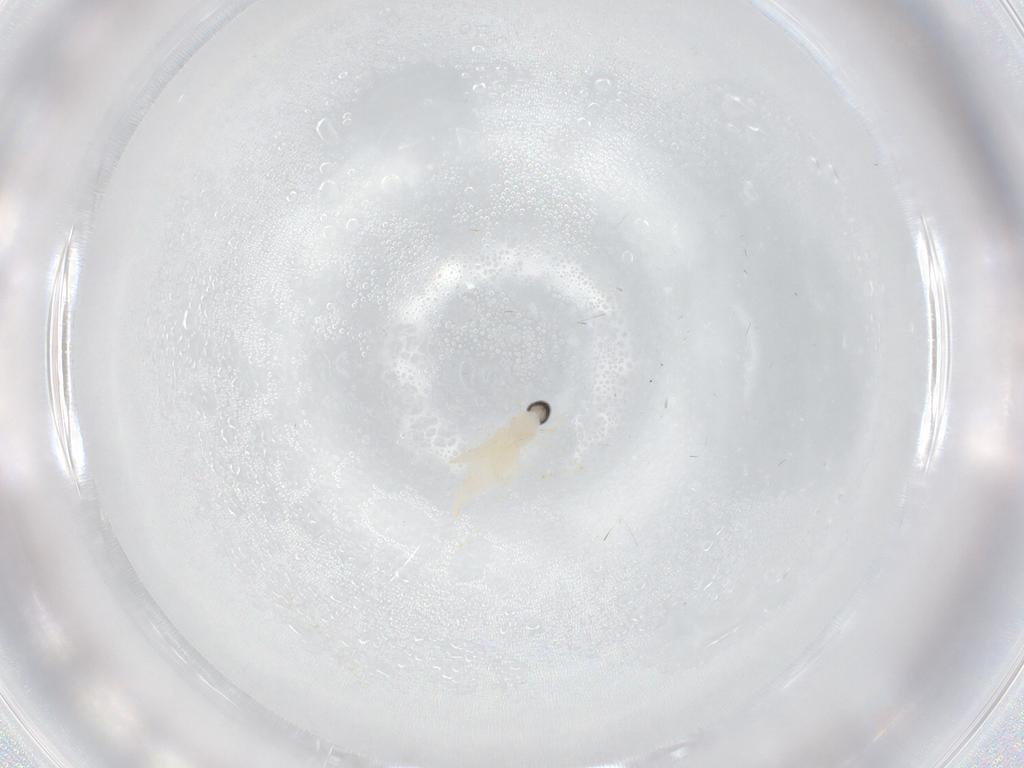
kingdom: Animalia
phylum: Arthropoda
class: Insecta
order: Diptera
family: Cecidomyiidae
